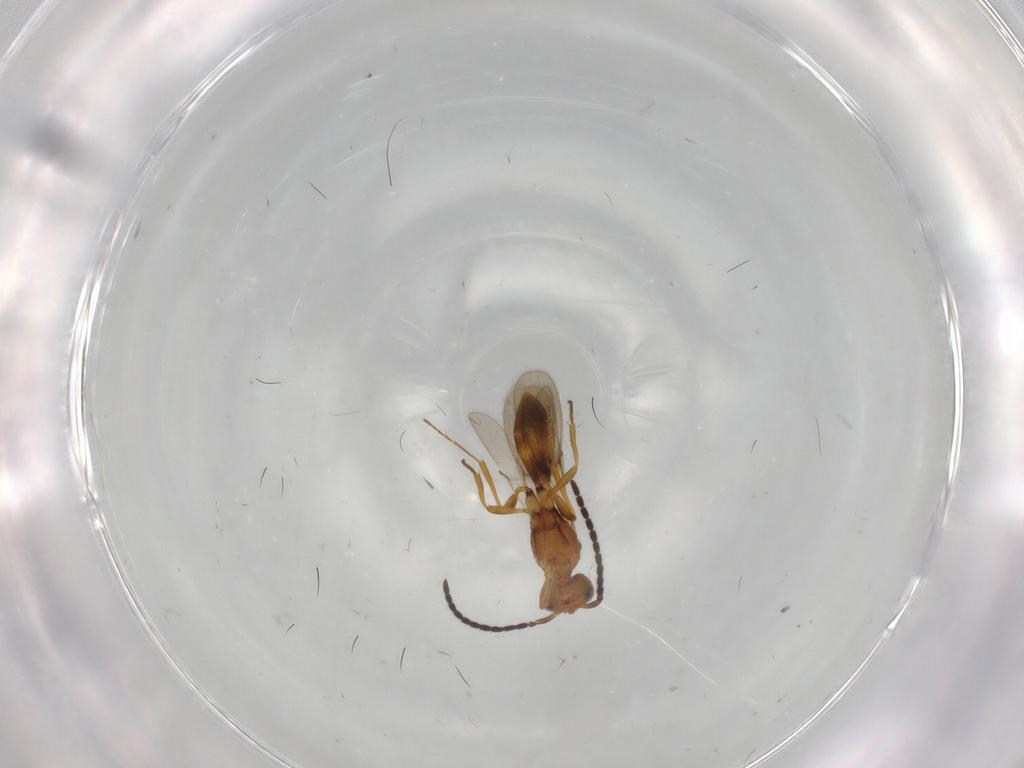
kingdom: Animalia
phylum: Arthropoda
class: Insecta
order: Hymenoptera
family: Scelionidae
